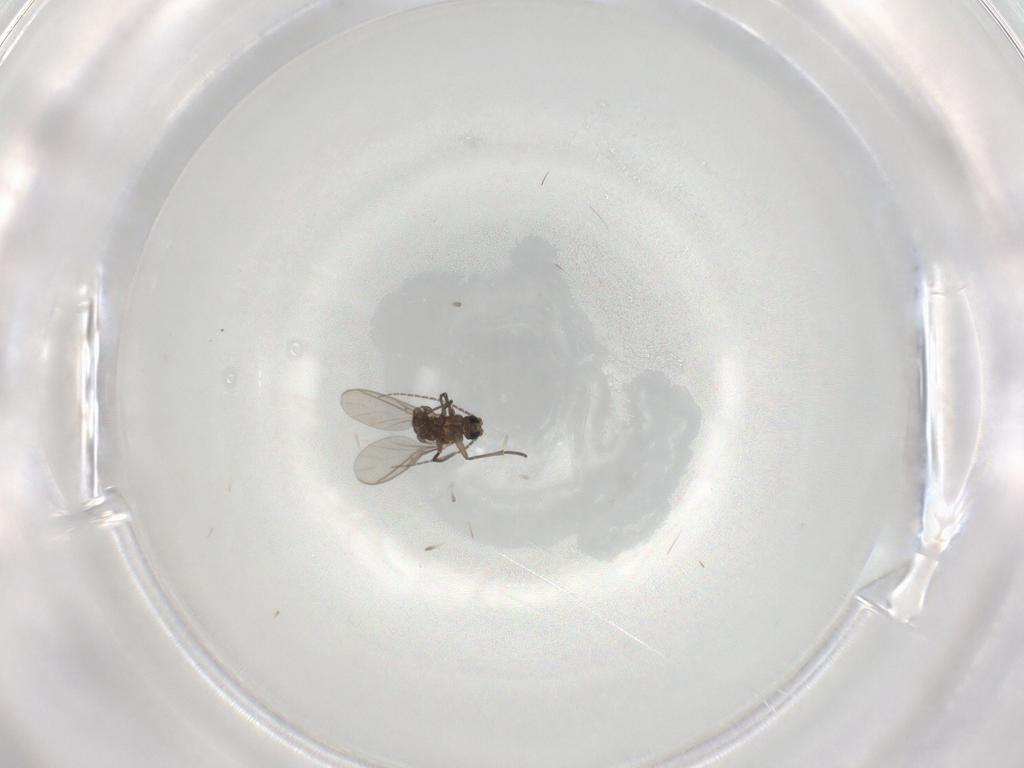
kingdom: Animalia
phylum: Arthropoda
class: Insecta
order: Diptera
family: Sciaridae
